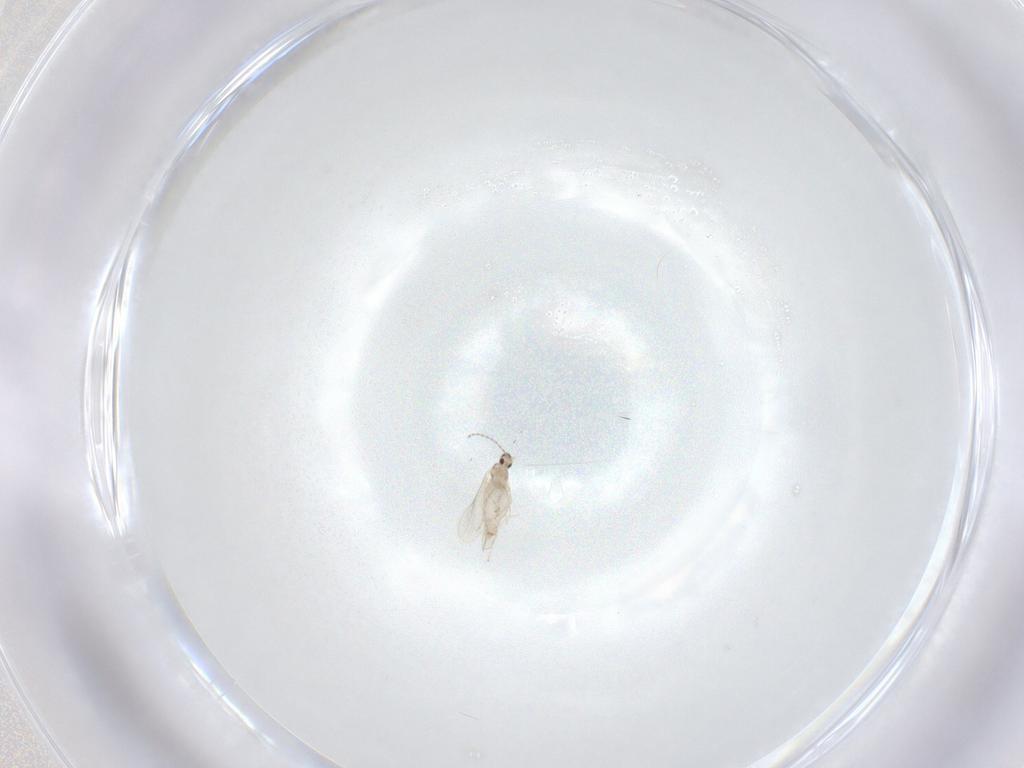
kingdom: Animalia
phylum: Arthropoda
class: Insecta
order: Diptera
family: Cecidomyiidae
